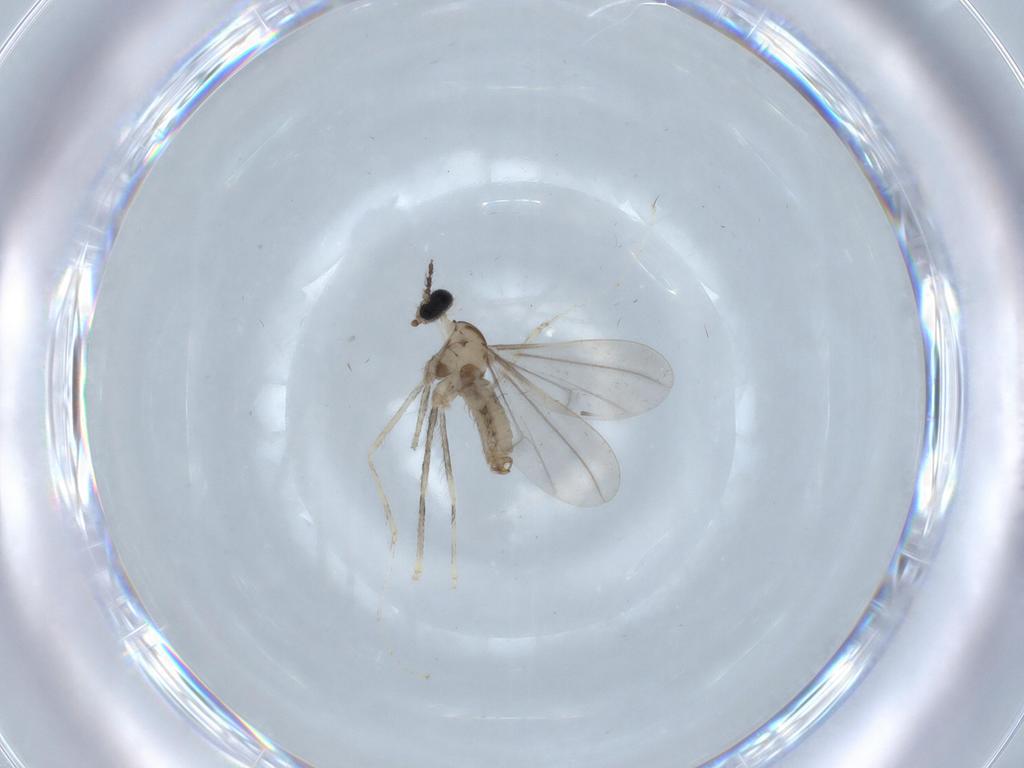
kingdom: Animalia
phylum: Arthropoda
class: Insecta
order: Diptera
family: Cecidomyiidae
